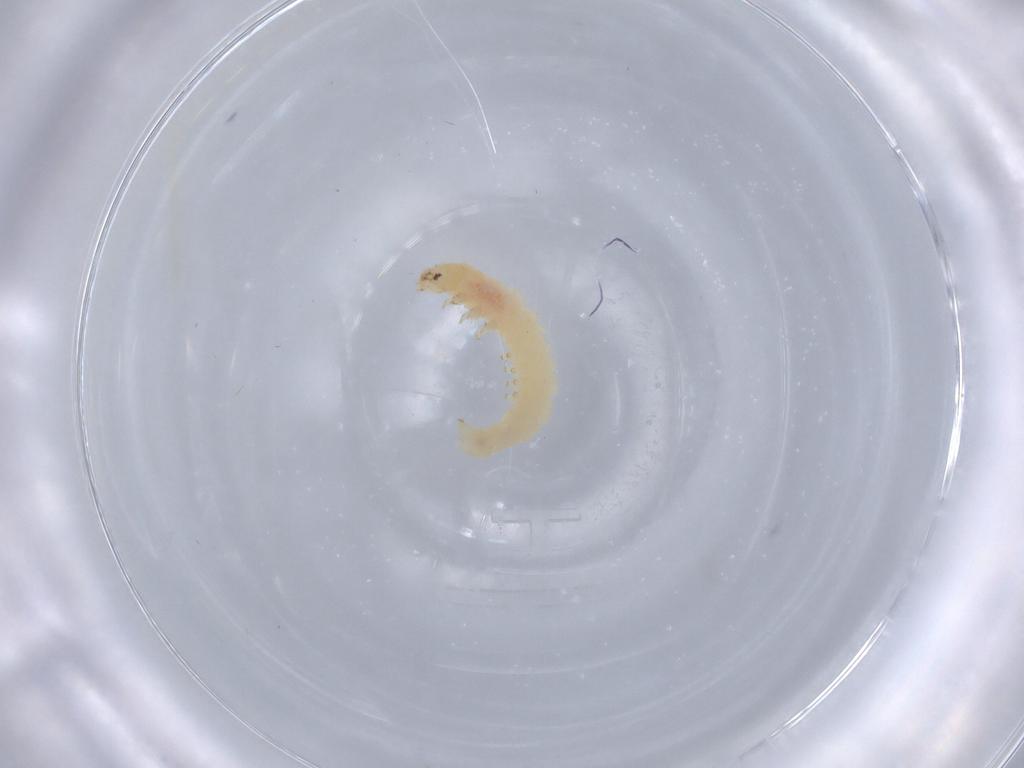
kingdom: Animalia
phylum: Arthropoda
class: Insecta
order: Lepidoptera
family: Gelechiidae
